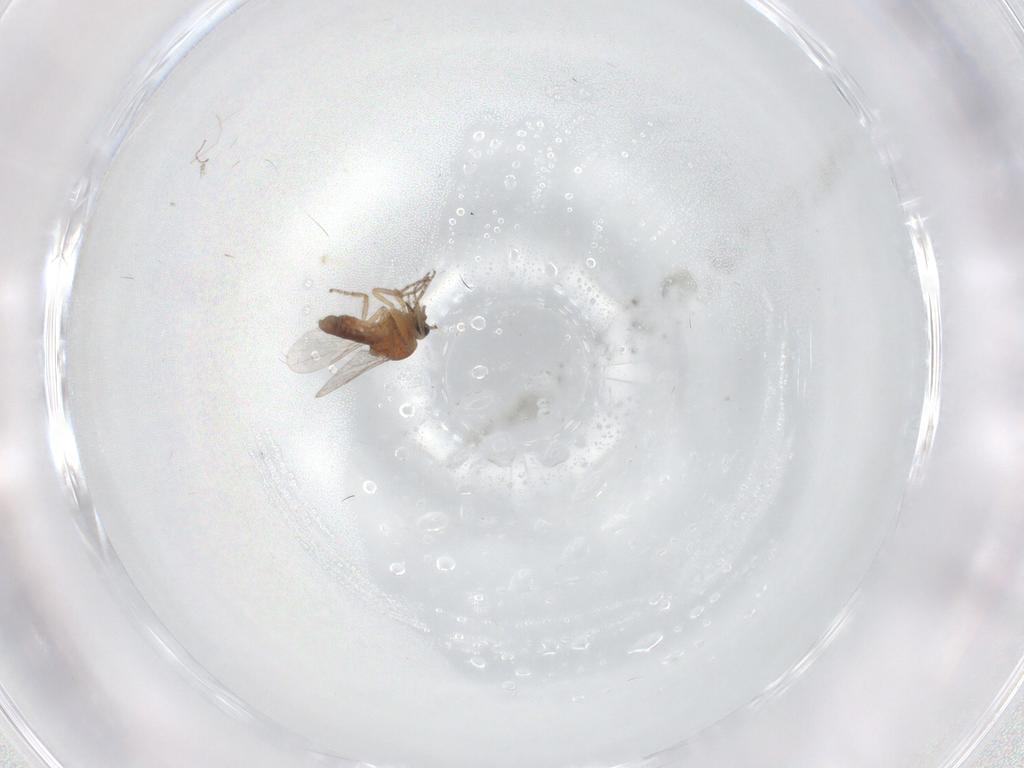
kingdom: Animalia
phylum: Arthropoda
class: Insecta
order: Diptera
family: Ceratopogonidae
